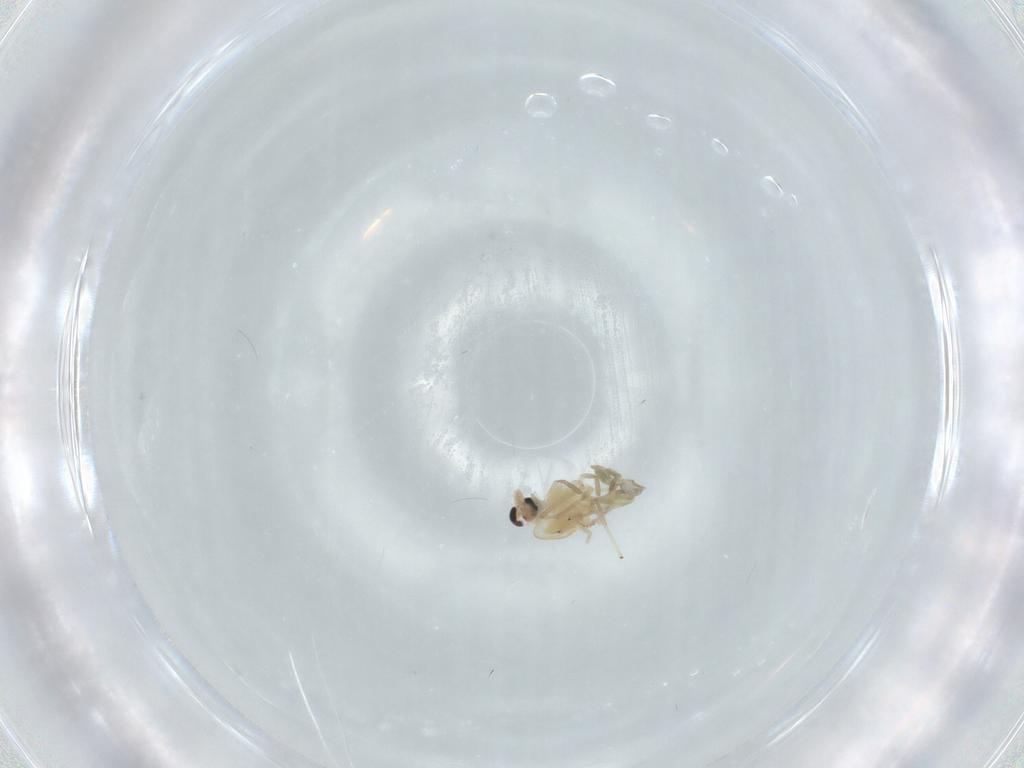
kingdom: Animalia
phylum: Arthropoda
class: Insecta
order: Diptera
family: Chironomidae
